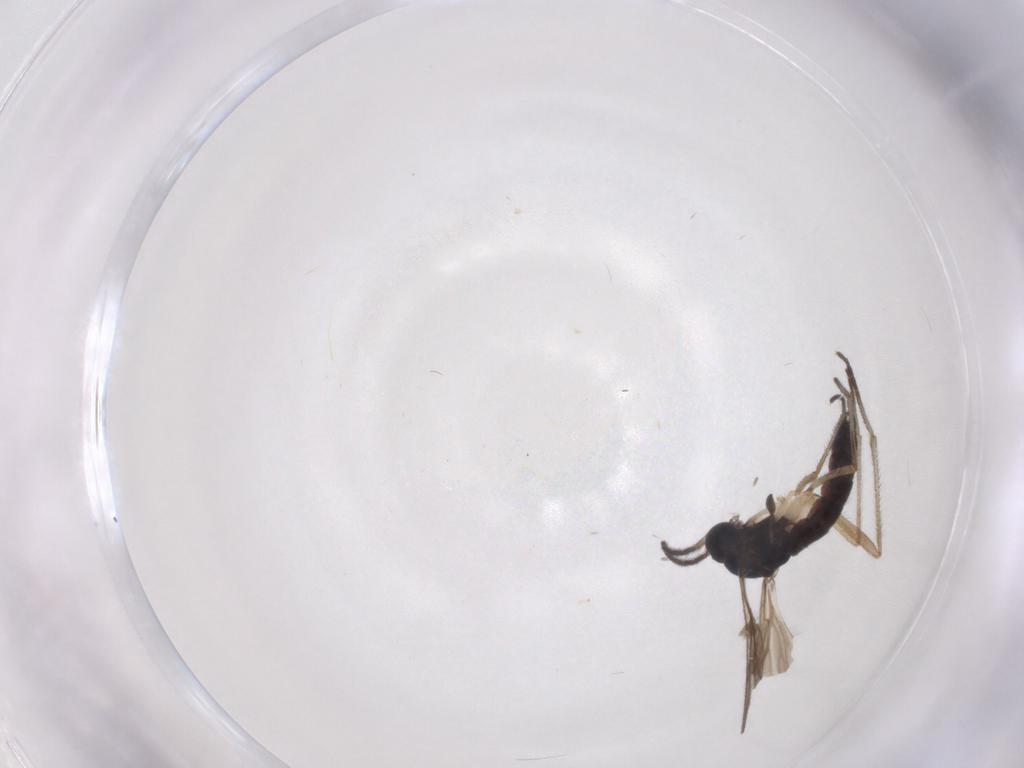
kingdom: Animalia
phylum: Arthropoda
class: Insecta
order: Diptera
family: Sciaridae
